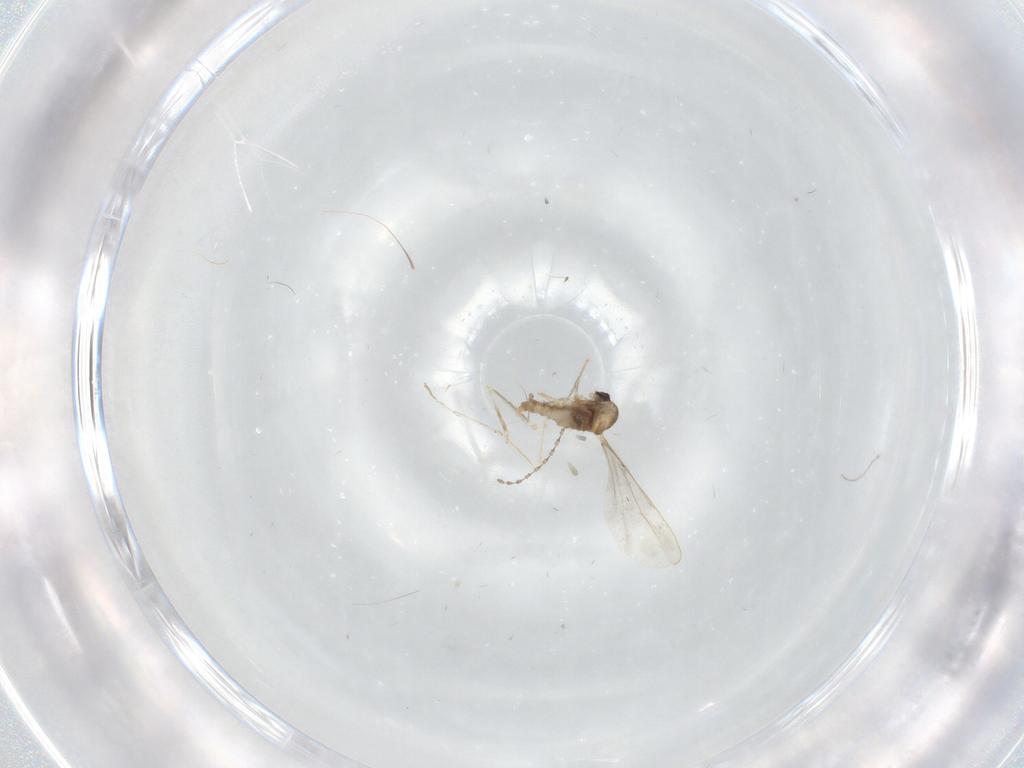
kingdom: Animalia
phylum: Arthropoda
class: Insecta
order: Diptera
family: Cecidomyiidae
